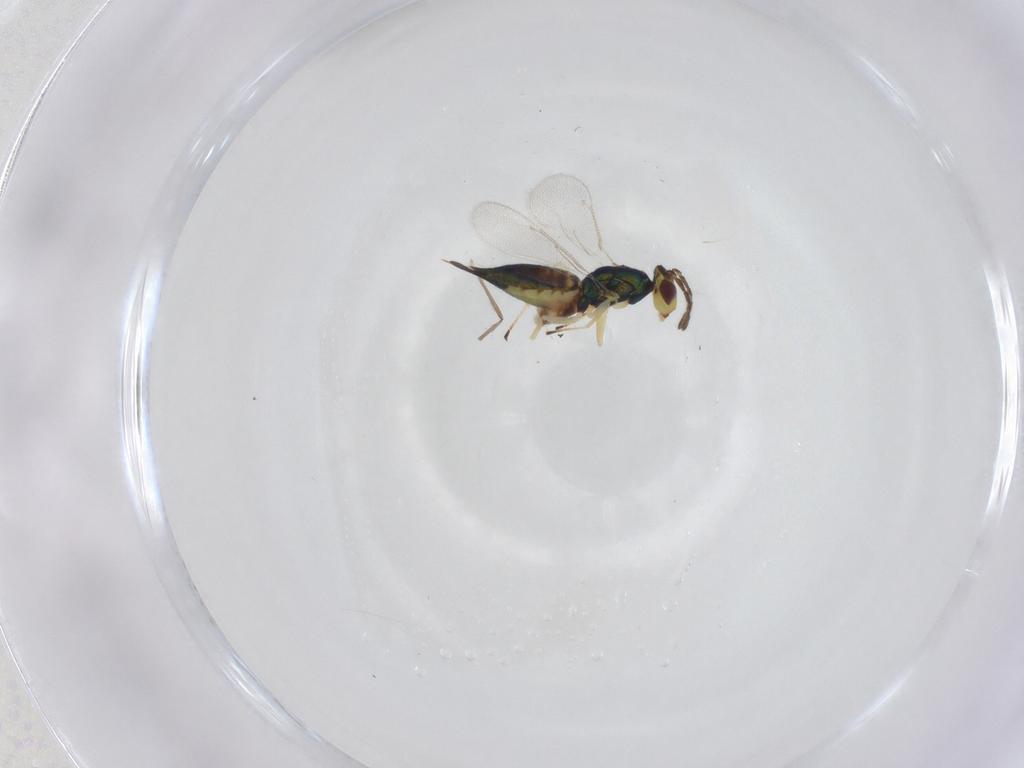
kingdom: Animalia
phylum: Arthropoda
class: Insecta
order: Hymenoptera
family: Eulophidae
